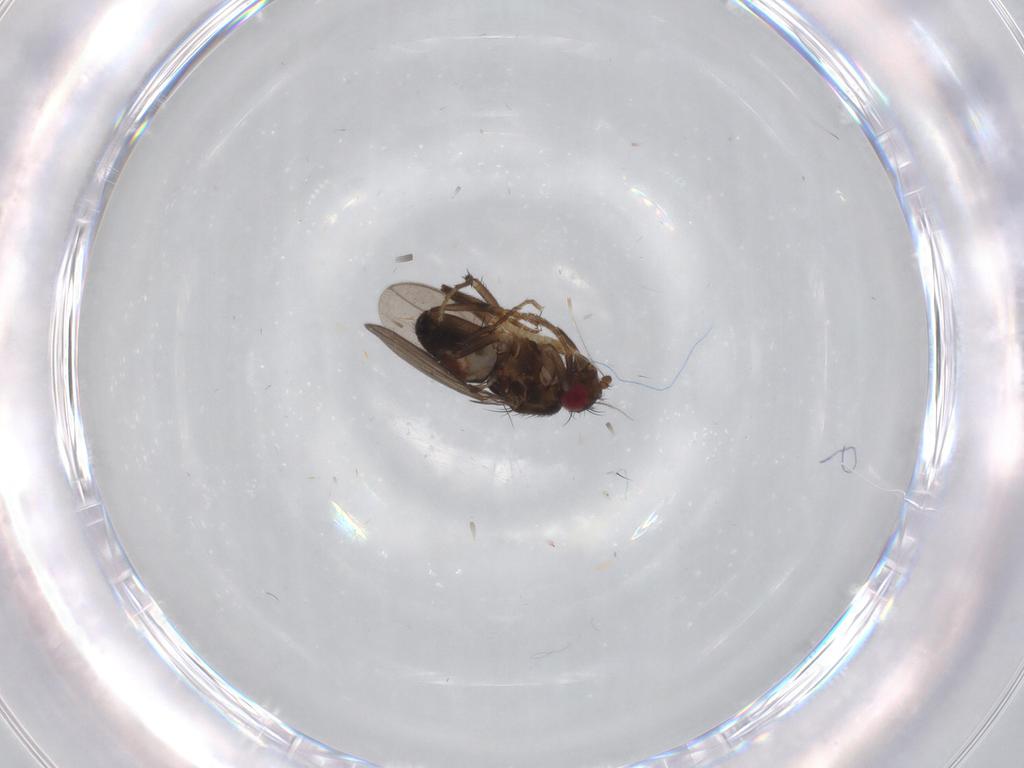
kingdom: Animalia
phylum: Arthropoda
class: Insecta
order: Diptera
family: Sphaeroceridae
